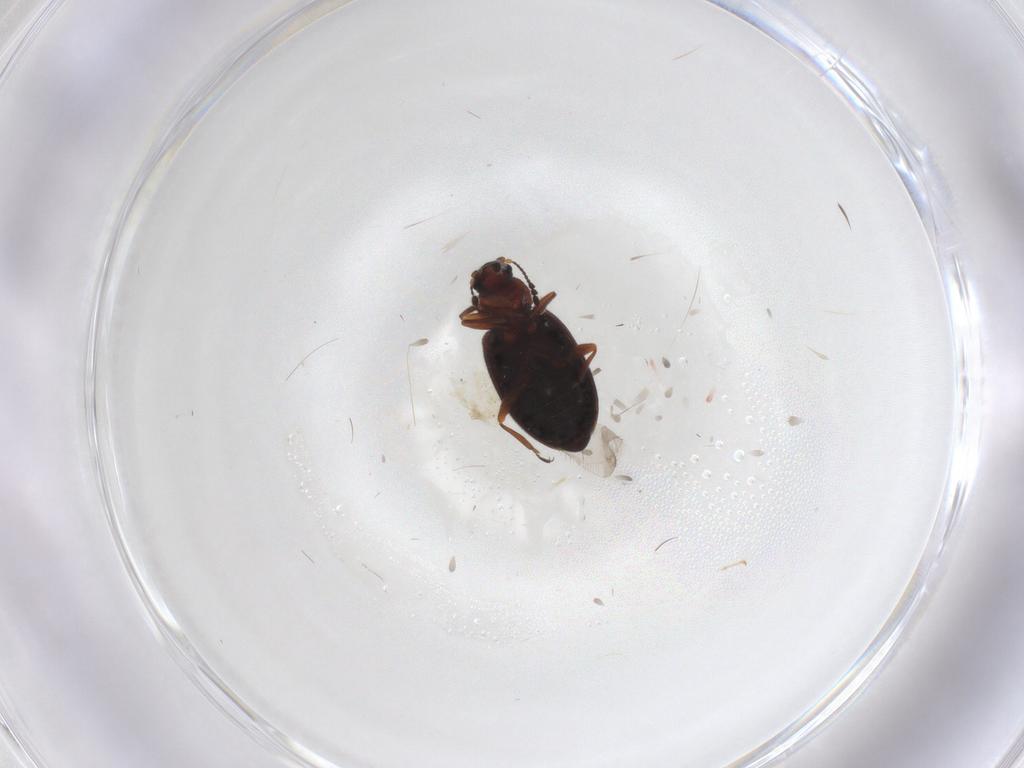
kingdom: Animalia
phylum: Arthropoda
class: Insecta
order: Coleoptera
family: Latridiidae
